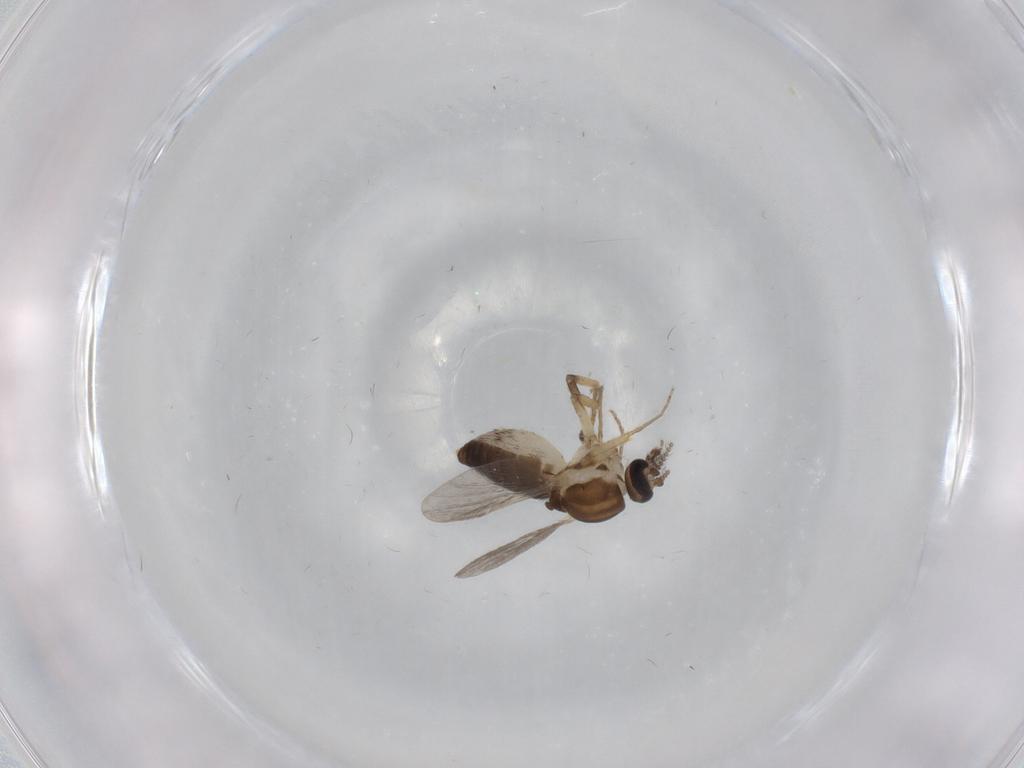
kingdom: Animalia
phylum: Arthropoda
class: Insecta
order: Diptera
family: Ceratopogonidae
